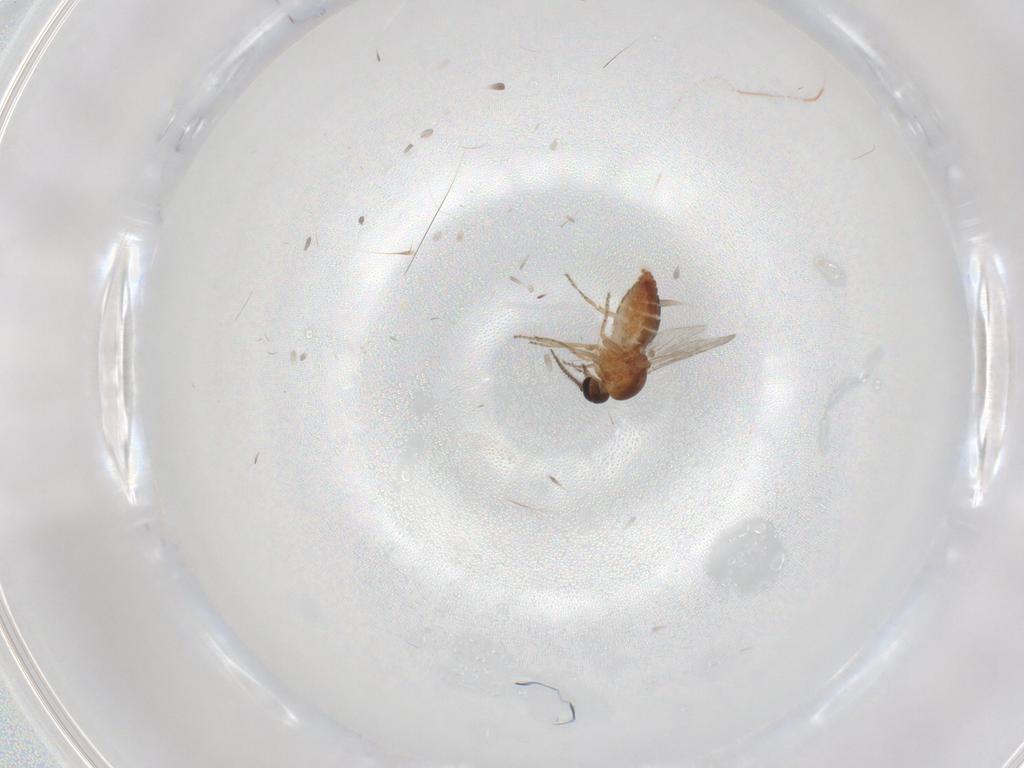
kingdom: Animalia
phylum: Arthropoda
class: Insecta
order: Diptera
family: Ceratopogonidae
